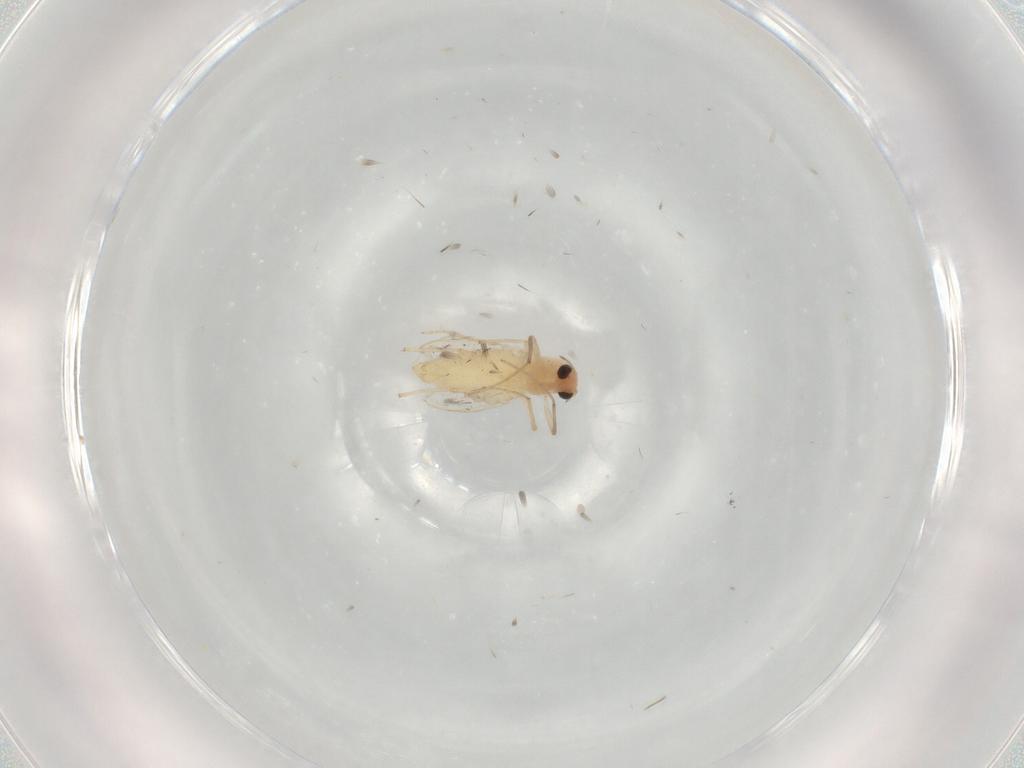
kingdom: Animalia
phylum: Arthropoda
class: Insecta
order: Diptera
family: Chironomidae
